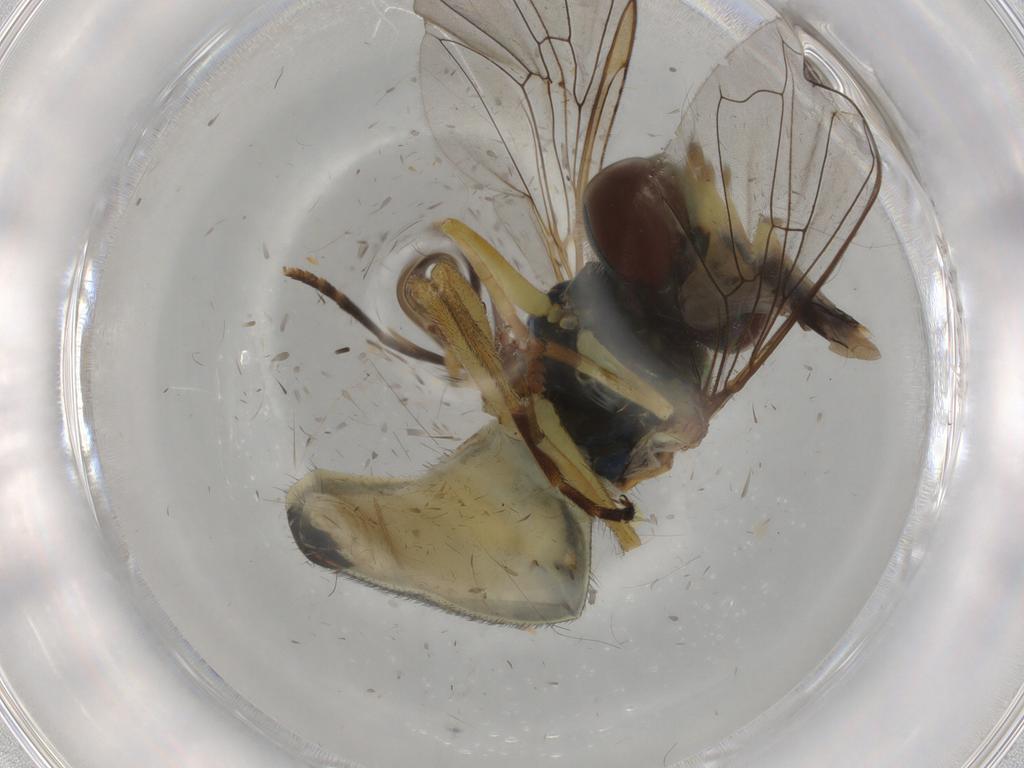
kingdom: Animalia
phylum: Arthropoda
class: Insecta
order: Diptera
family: Syrphidae
